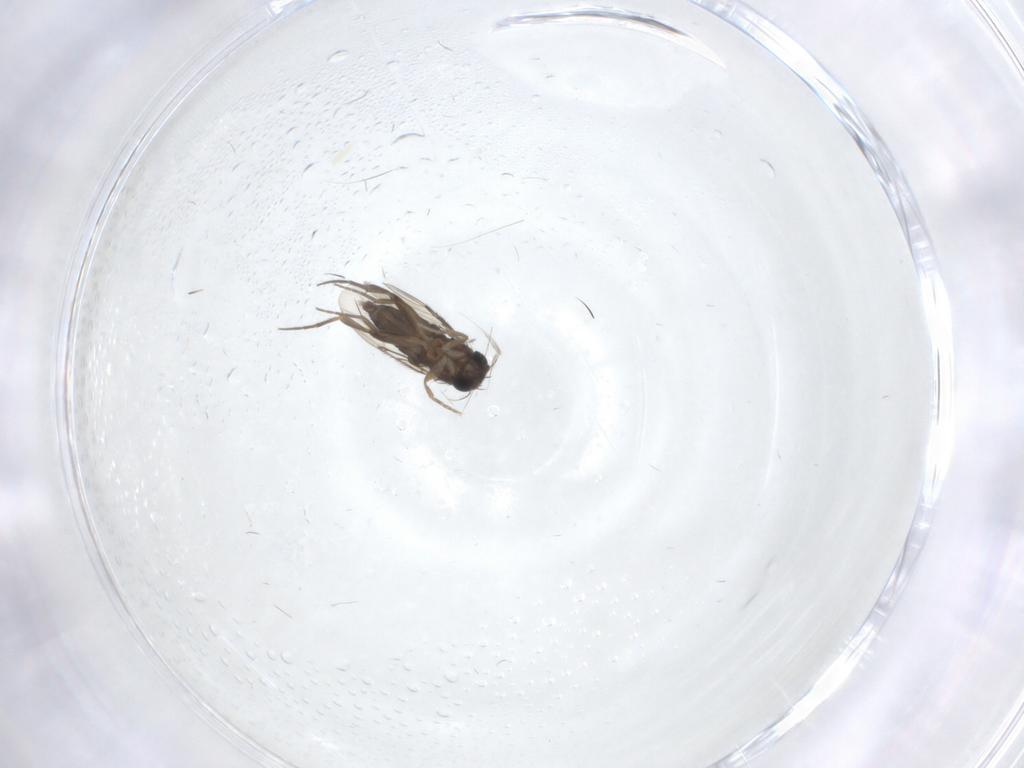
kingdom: Animalia
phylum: Arthropoda
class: Insecta
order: Diptera
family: Phoridae
